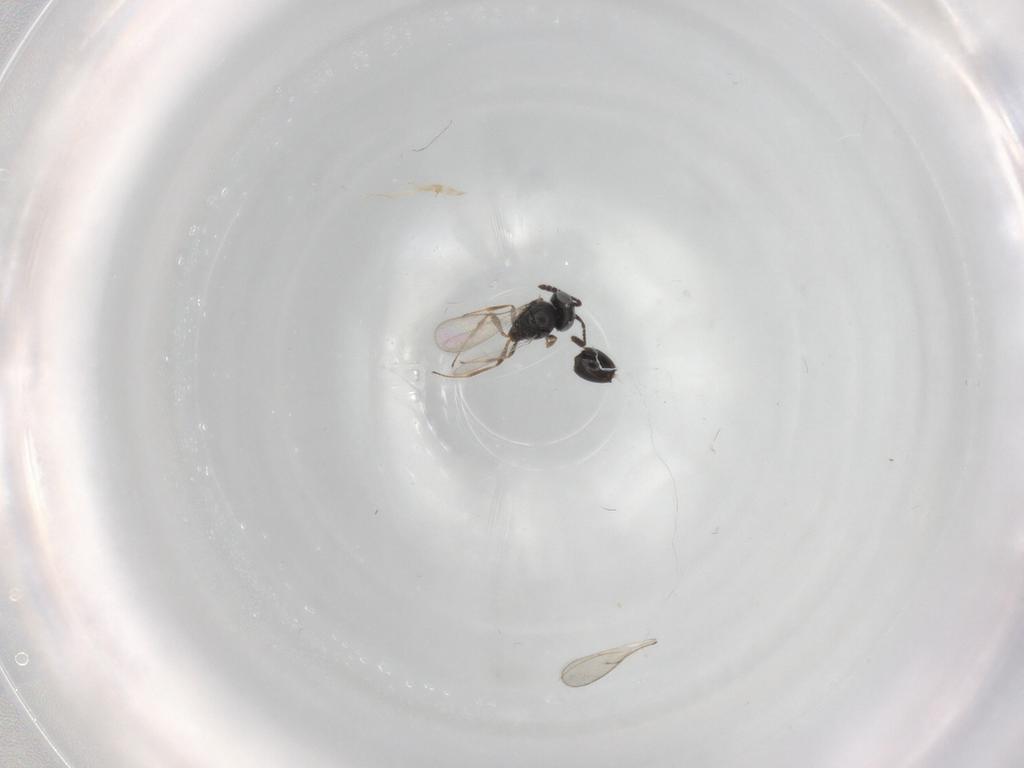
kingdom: Animalia
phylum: Arthropoda
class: Insecta
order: Hymenoptera
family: Scelionidae
